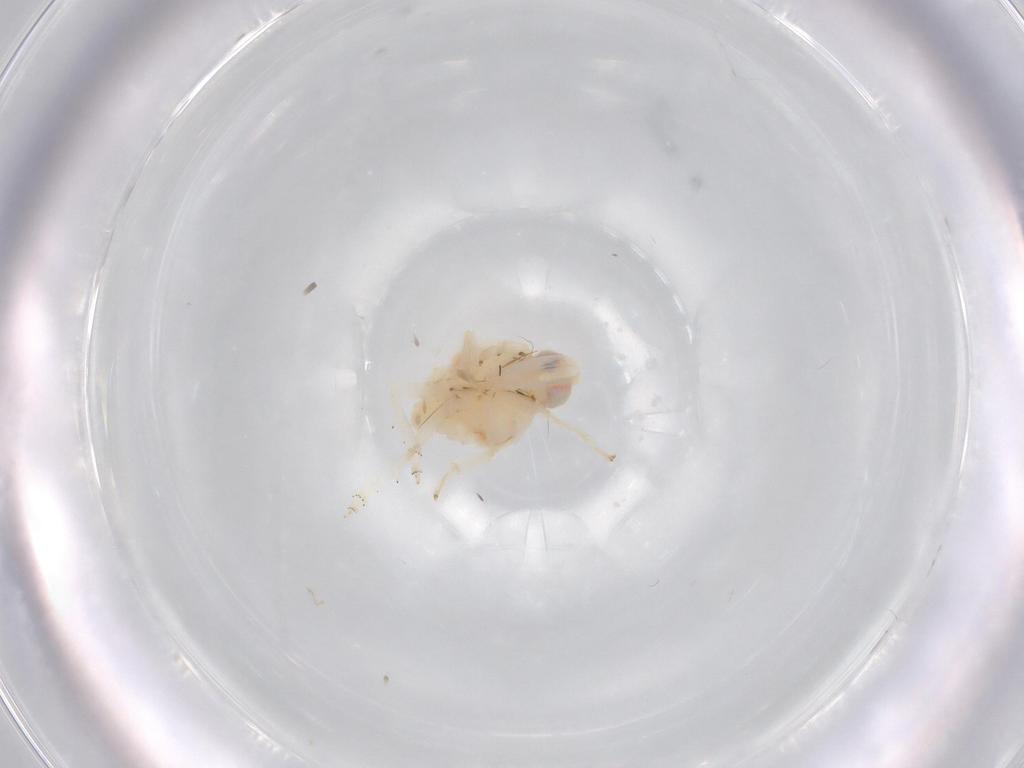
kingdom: Animalia
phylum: Arthropoda
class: Insecta
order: Hemiptera
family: Nogodinidae
